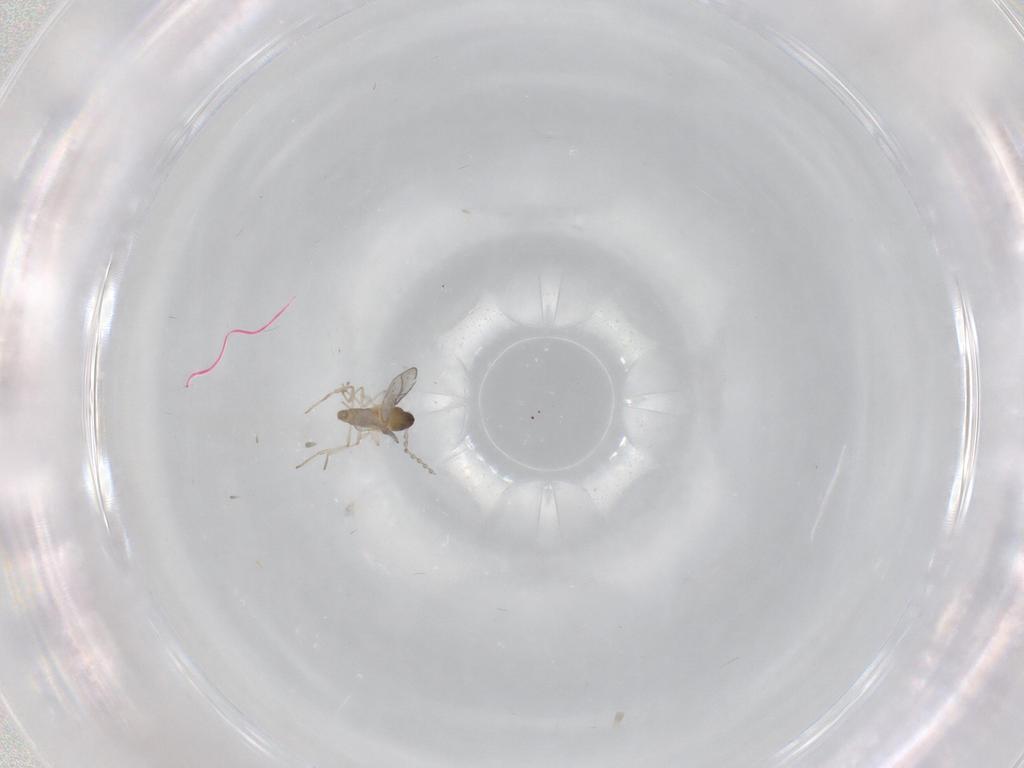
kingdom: Animalia
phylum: Arthropoda
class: Insecta
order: Diptera
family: Cecidomyiidae
